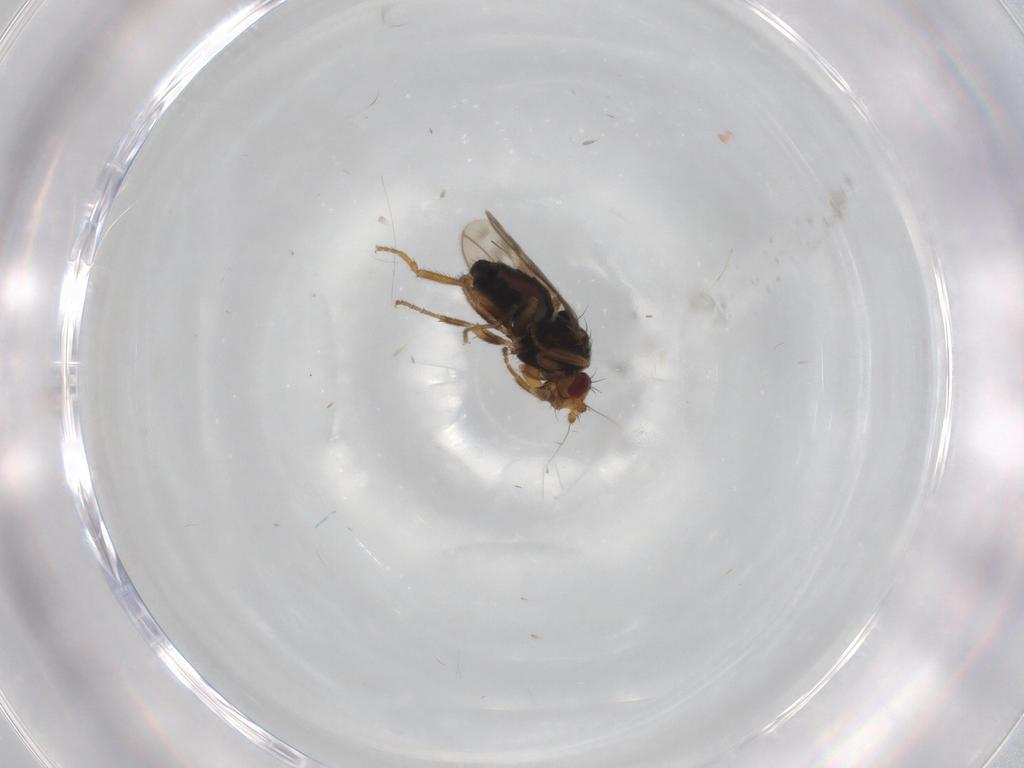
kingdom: Animalia
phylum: Arthropoda
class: Insecta
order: Diptera
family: Sphaeroceridae
